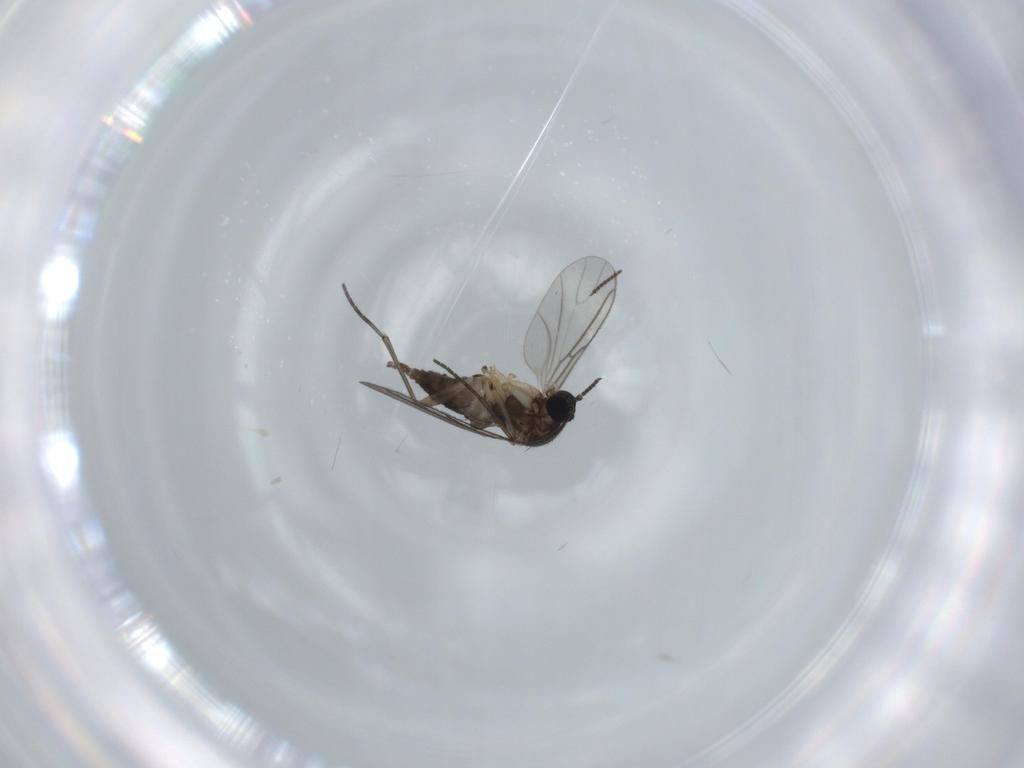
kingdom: Animalia
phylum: Arthropoda
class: Insecta
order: Diptera
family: Sciaridae
